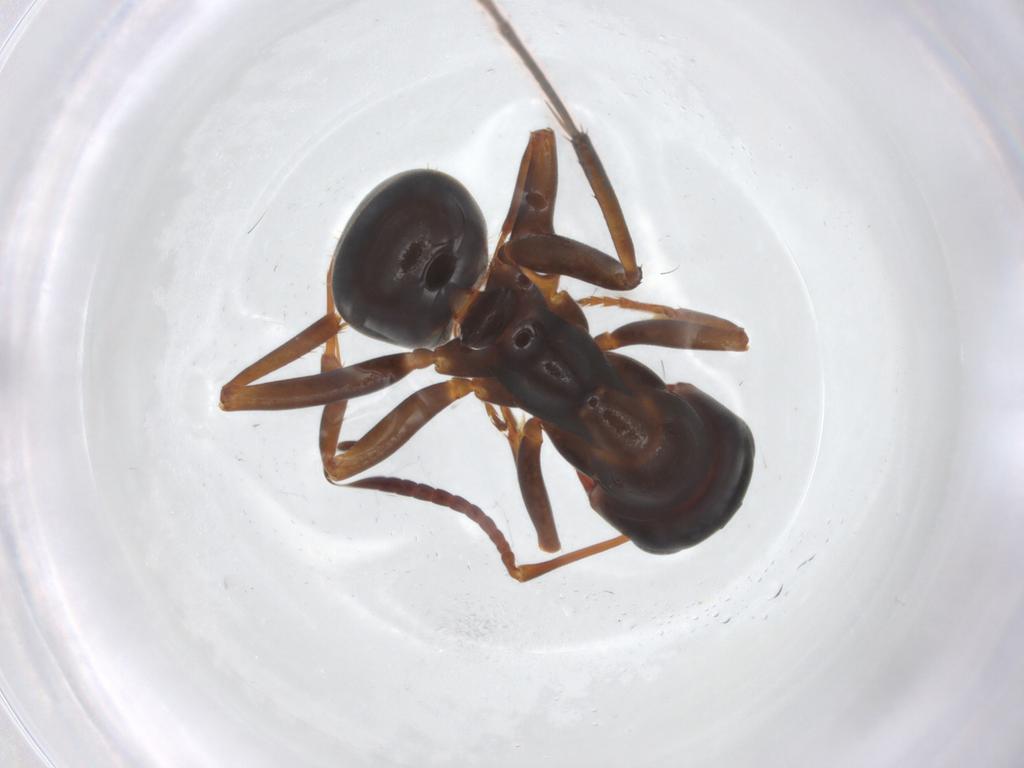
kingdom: Animalia
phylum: Arthropoda
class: Insecta
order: Hymenoptera
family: Formicidae
